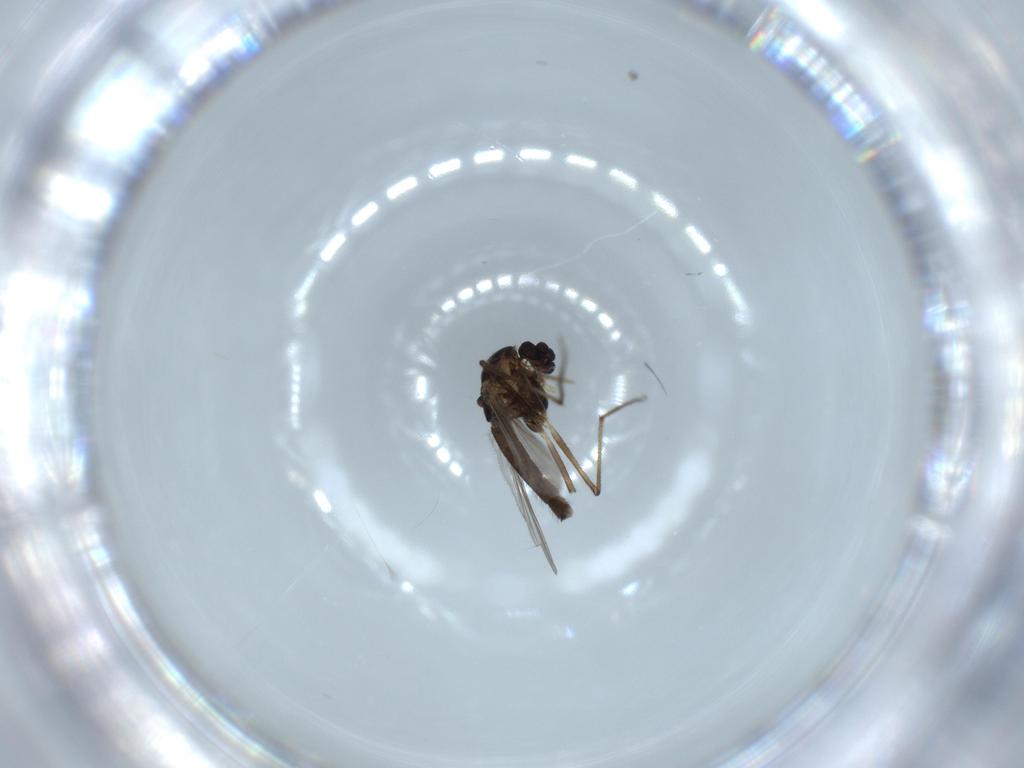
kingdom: Animalia
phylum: Arthropoda
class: Insecta
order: Diptera
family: Chironomidae
